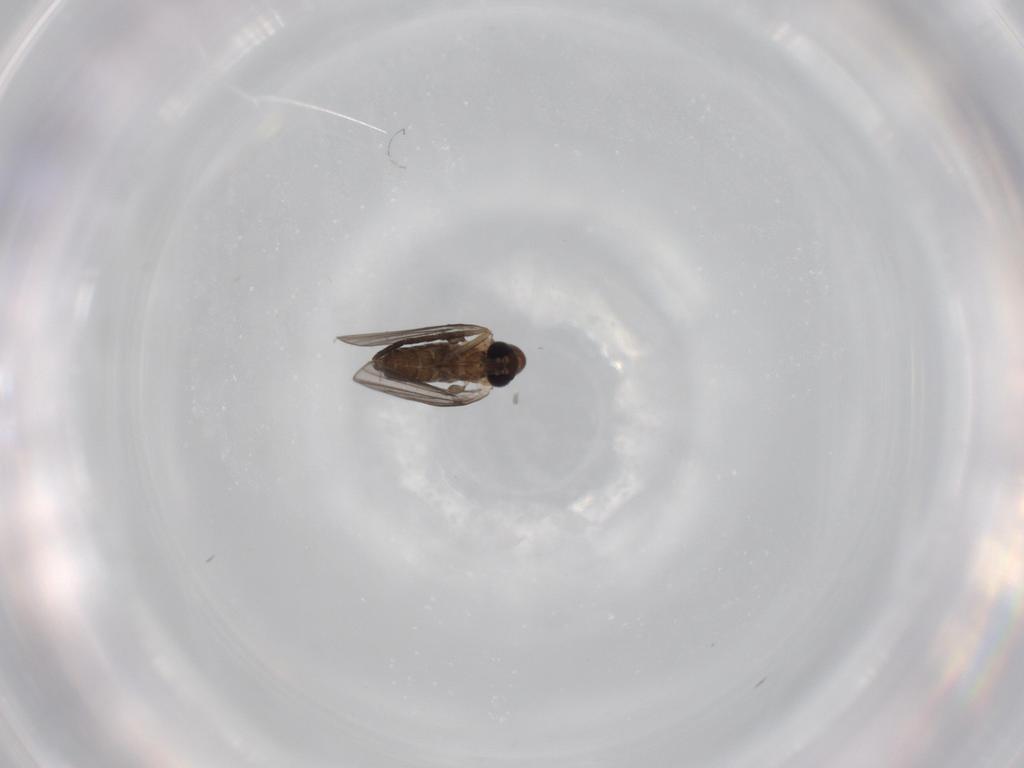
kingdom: Animalia
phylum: Arthropoda
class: Insecta
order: Diptera
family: Psychodidae
